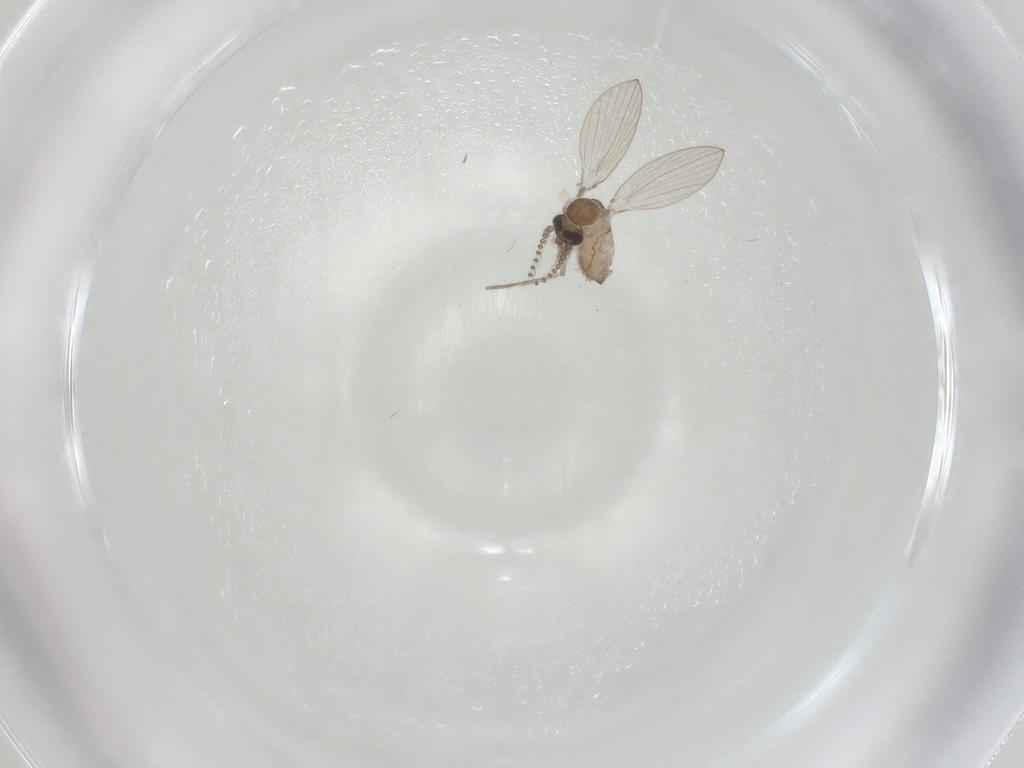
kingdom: Animalia
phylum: Arthropoda
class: Insecta
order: Diptera
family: Psychodidae
